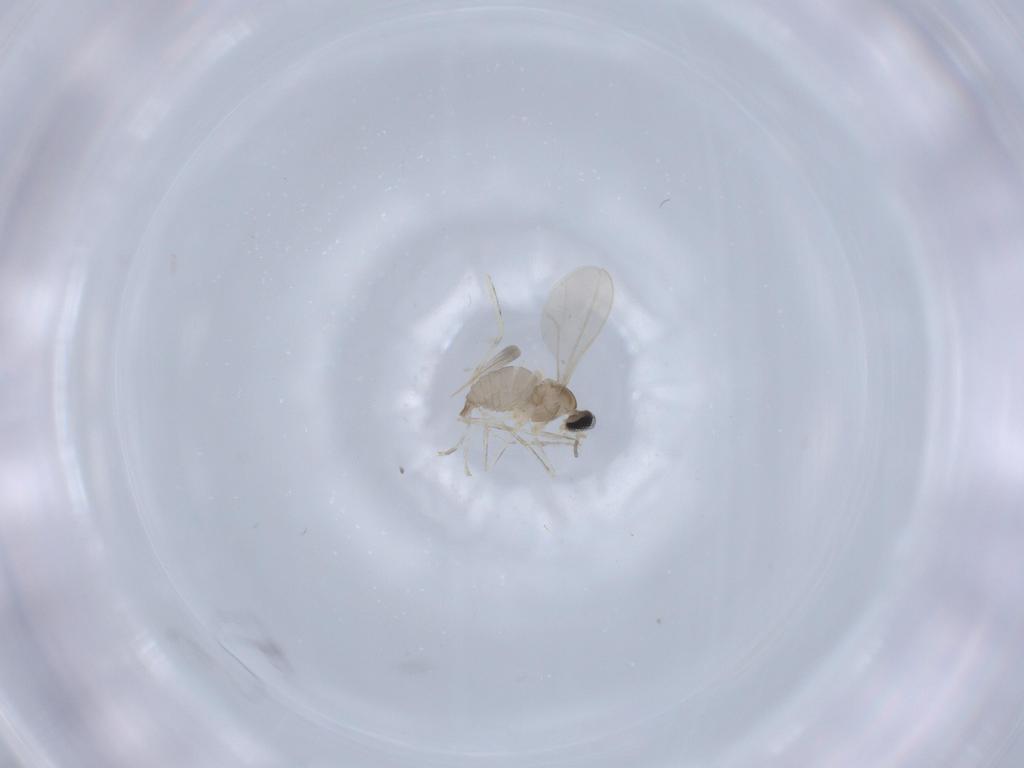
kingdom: Animalia
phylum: Arthropoda
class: Insecta
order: Diptera
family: Cecidomyiidae
